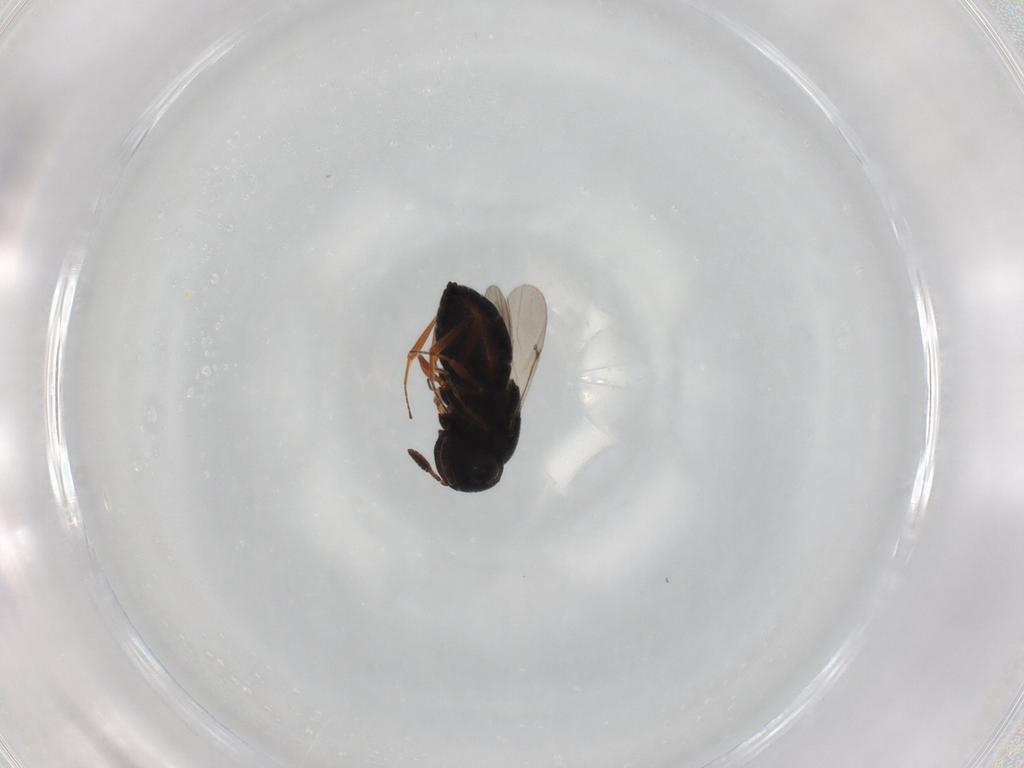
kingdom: Animalia
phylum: Arthropoda
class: Insecta
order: Hymenoptera
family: Scelionidae
